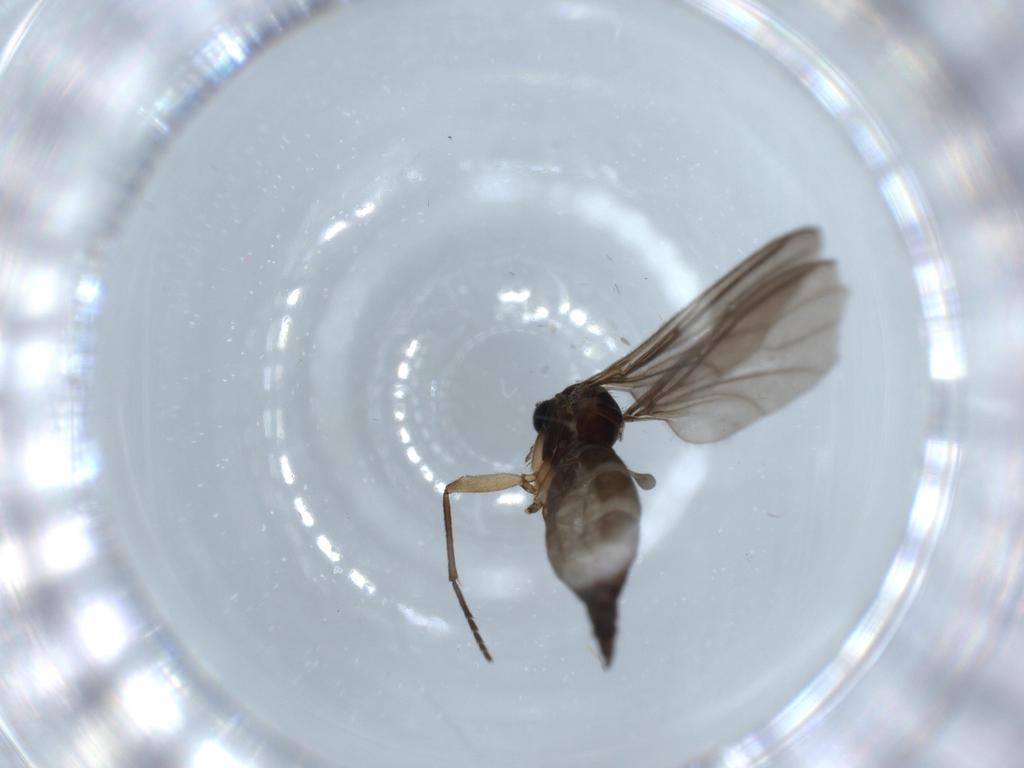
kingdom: Animalia
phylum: Arthropoda
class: Insecta
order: Diptera
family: Sciaridae
